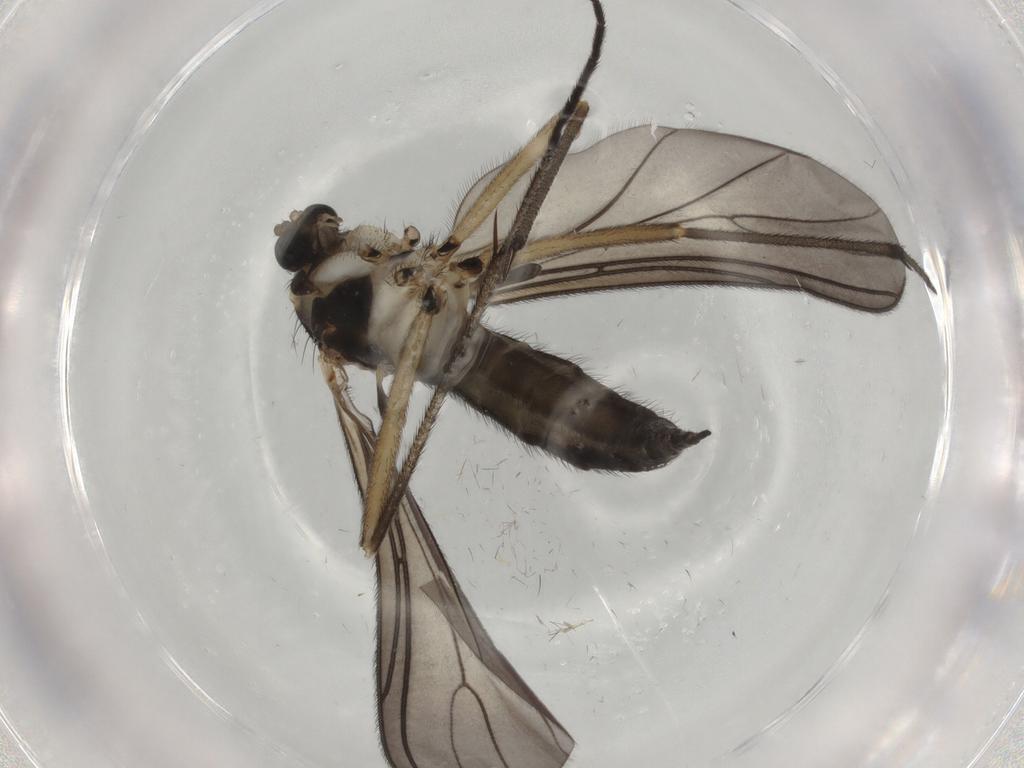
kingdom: Animalia
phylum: Arthropoda
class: Insecta
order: Diptera
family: Sciaridae
